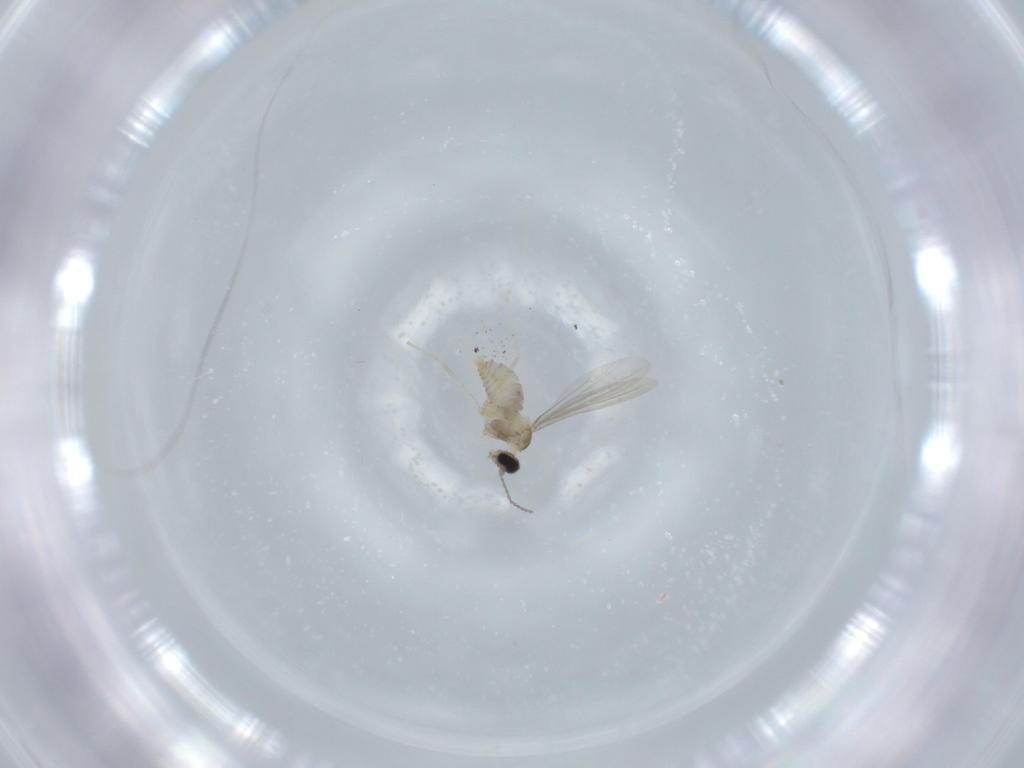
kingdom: Animalia
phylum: Arthropoda
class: Insecta
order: Diptera
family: Cecidomyiidae
